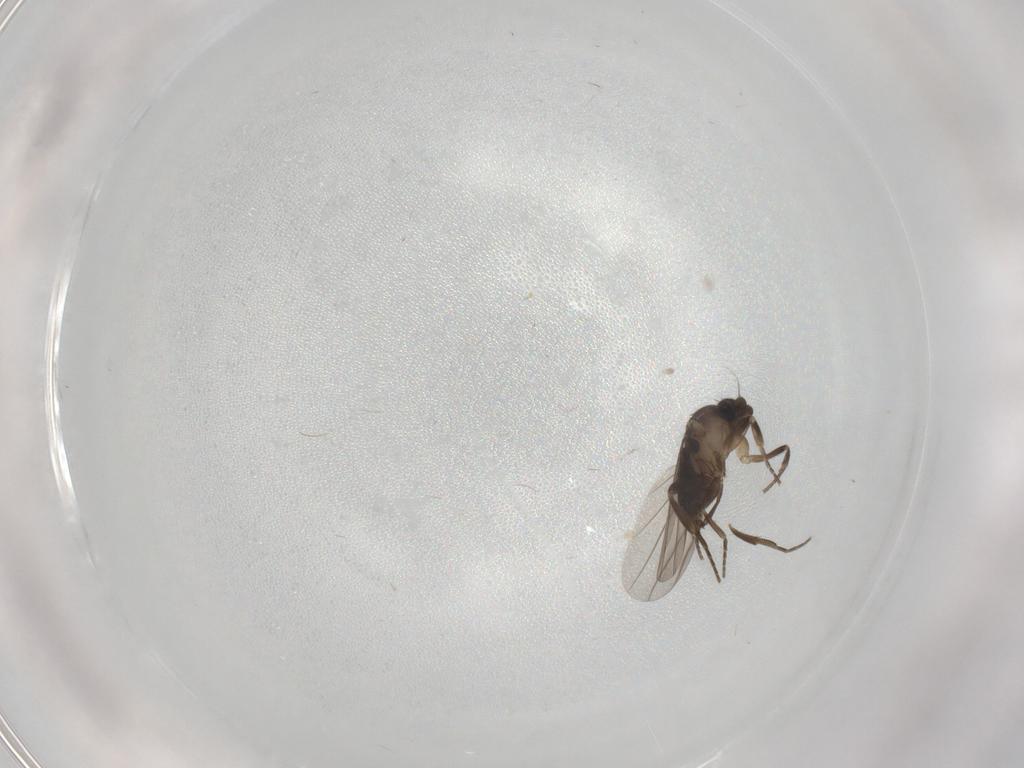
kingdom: Animalia
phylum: Arthropoda
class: Insecta
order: Diptera
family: Phoridae
